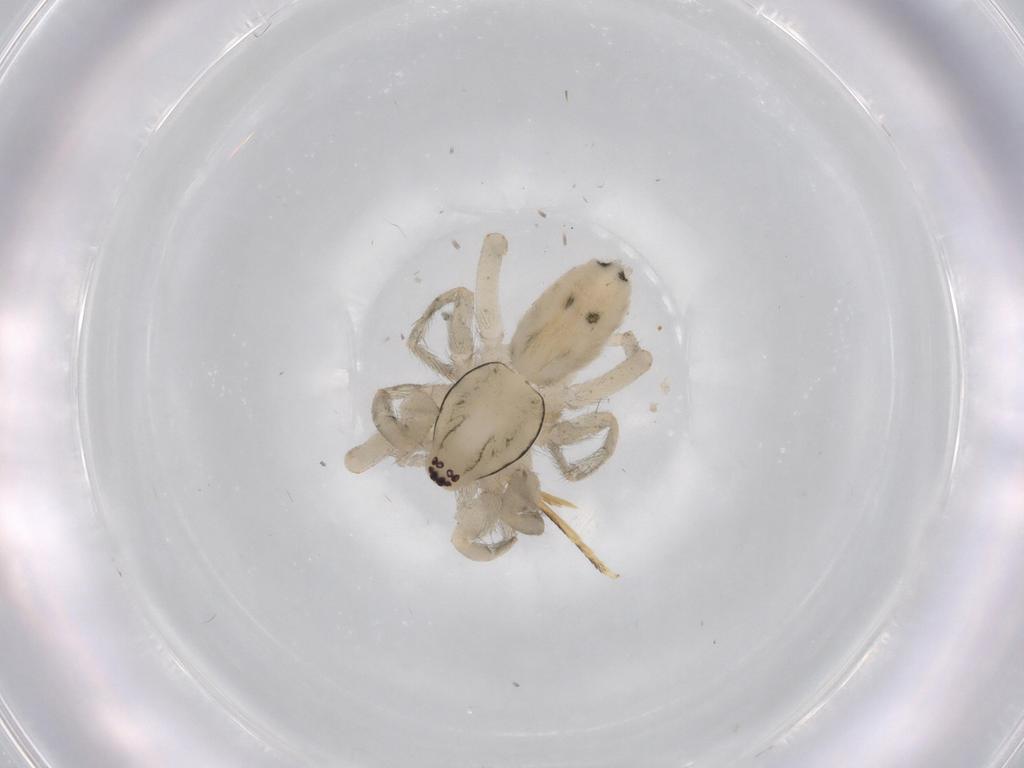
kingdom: Animalia
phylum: Arthropoda
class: Arachnida
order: Araneae
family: Gnaphosidae
